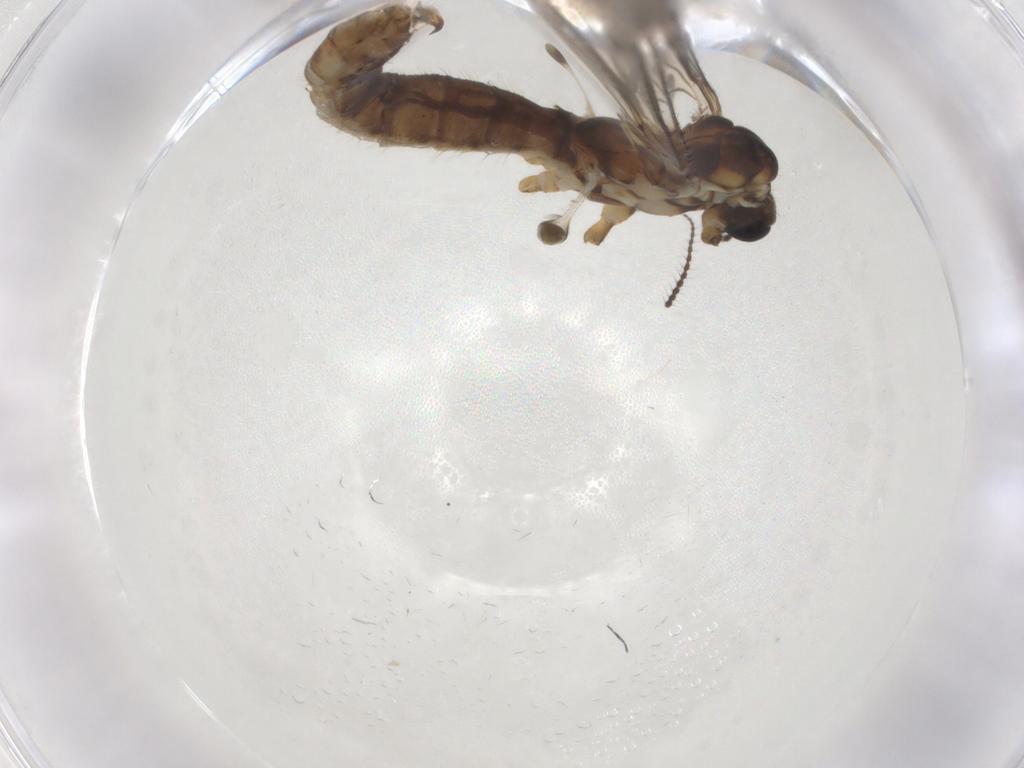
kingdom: Animalia
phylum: Arthropoda
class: Insecta
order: Diptera
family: Limoniidae
